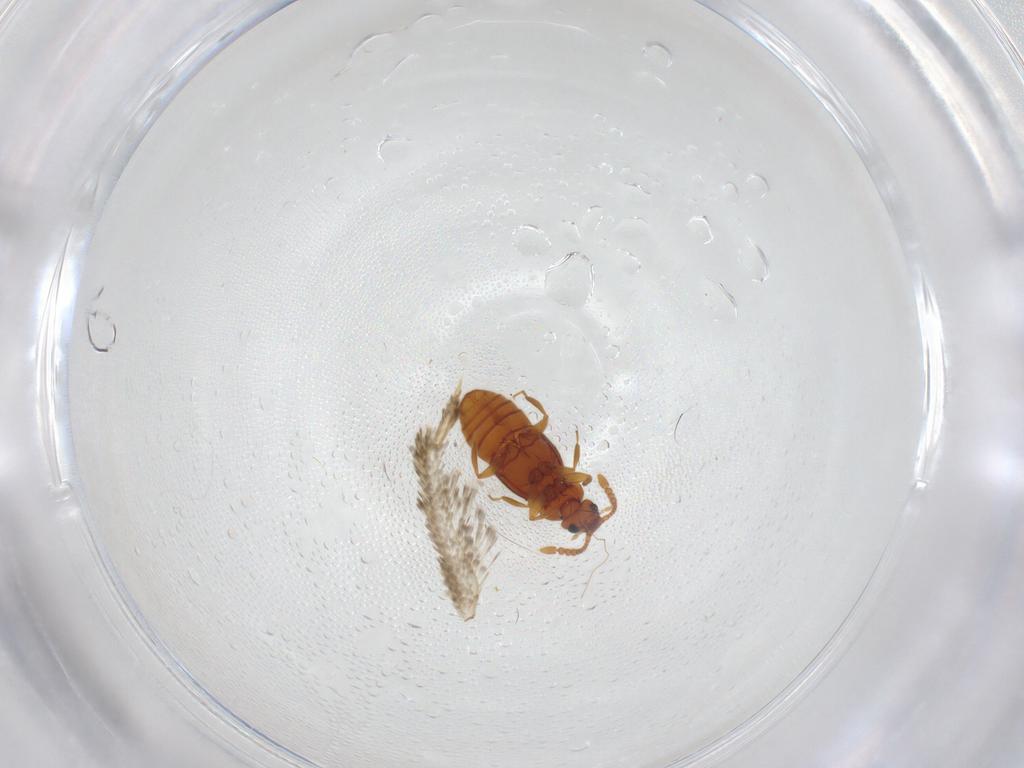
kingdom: Animalia
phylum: Arthropoda
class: Insecta
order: Coleoptera
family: Staphylinidae
